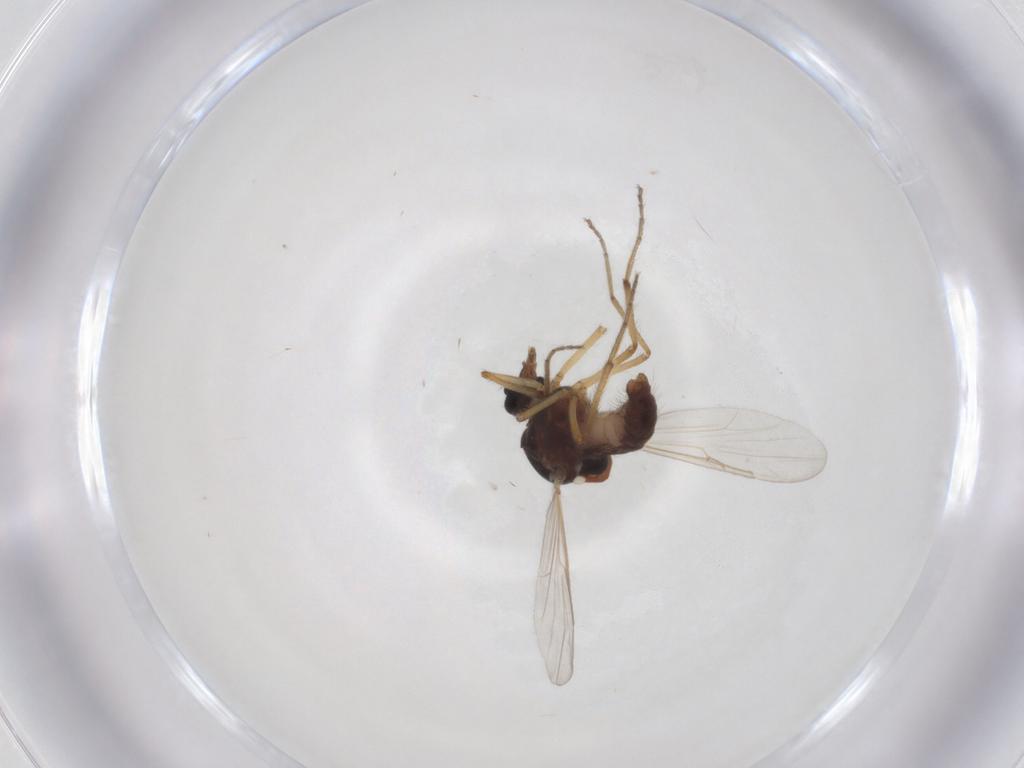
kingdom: Animalia
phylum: Arthropoda
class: Insecta
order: Diptera
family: Ceratopogonidae
